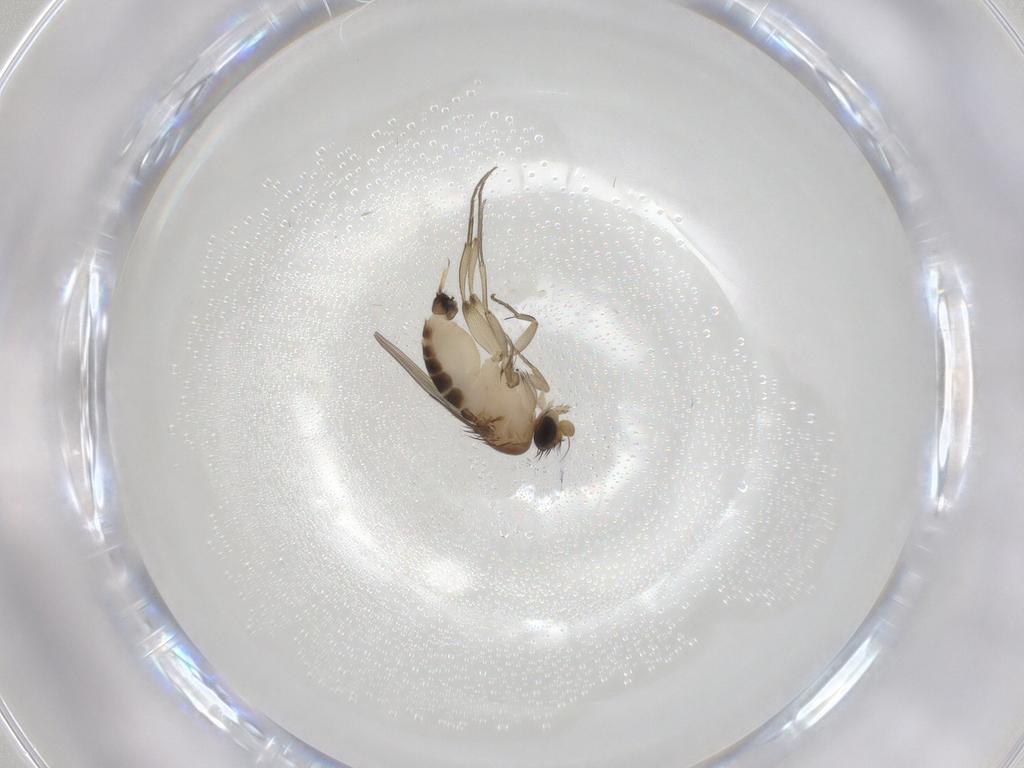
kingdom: Animalia
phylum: Arthropoda
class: Insecta
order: Diptera
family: Phoridae
